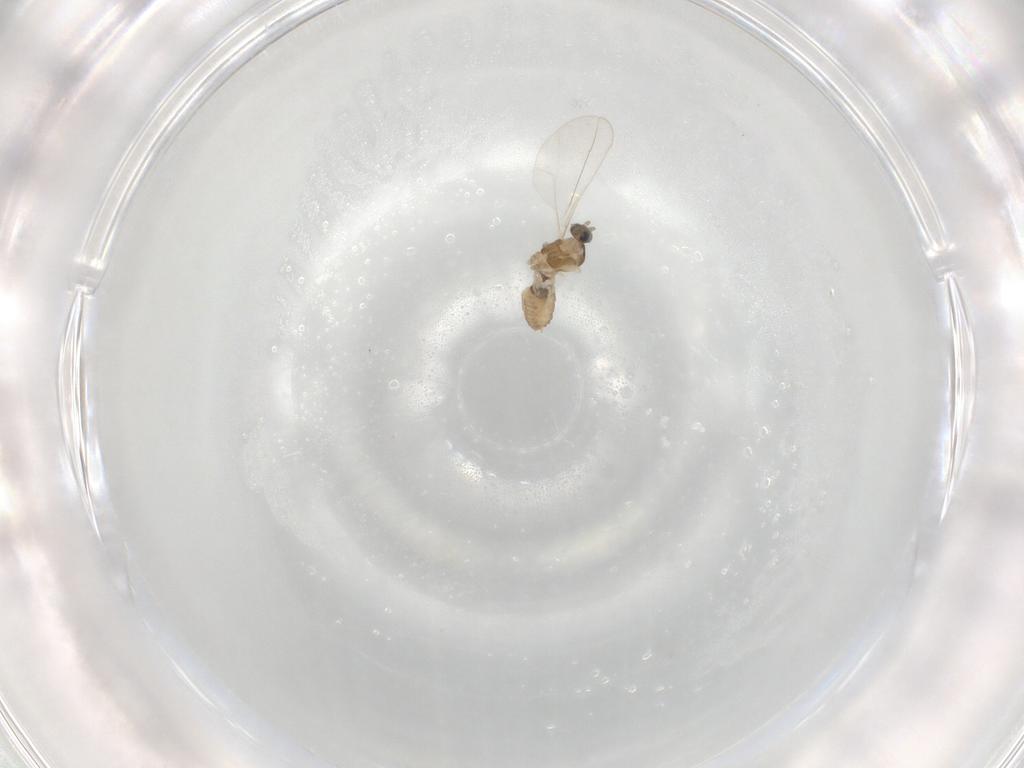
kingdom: Animalia
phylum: Arthropoda
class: Insecta
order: Diptera
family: Cecidomyiidae
